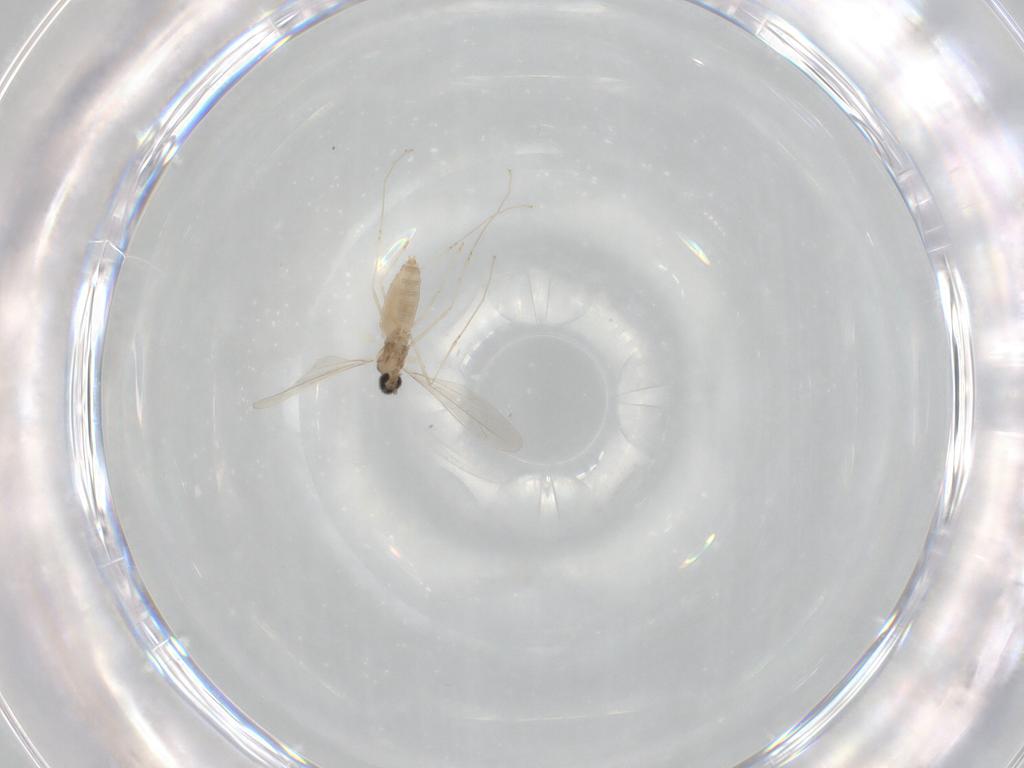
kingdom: Animalia
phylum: Arthropoda
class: Insecta
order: Diptera
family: Cecidomyiidae
